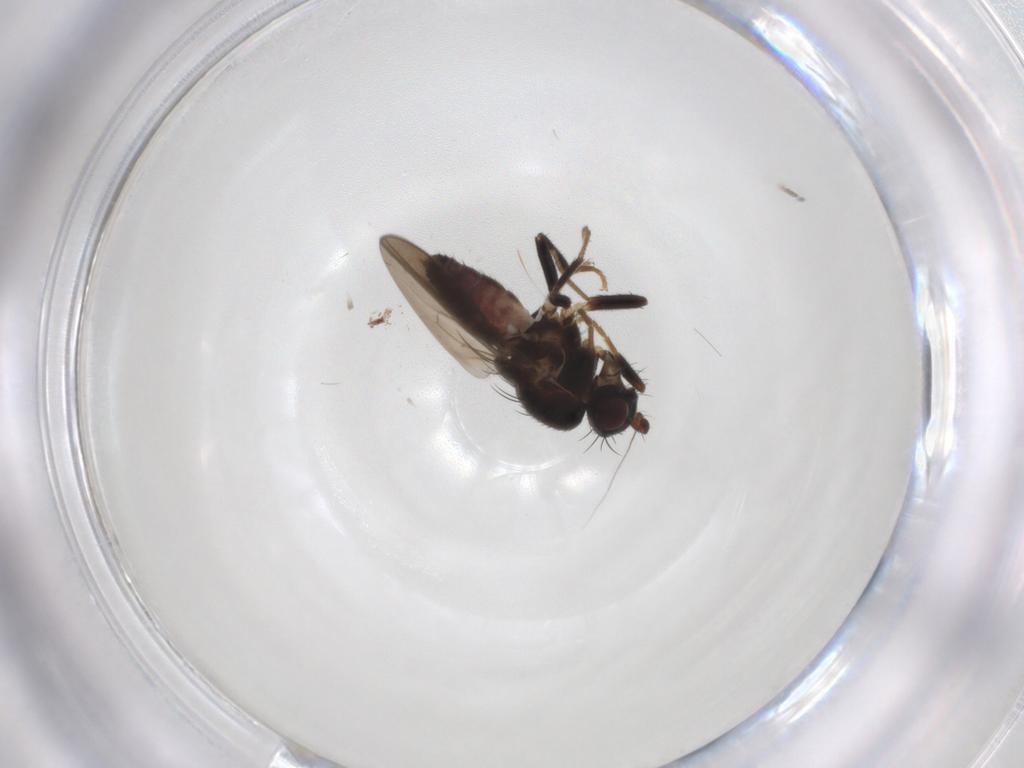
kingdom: Animalia
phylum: Arthropoda
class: Insecta
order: Diptera
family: Sphaeroceridae
